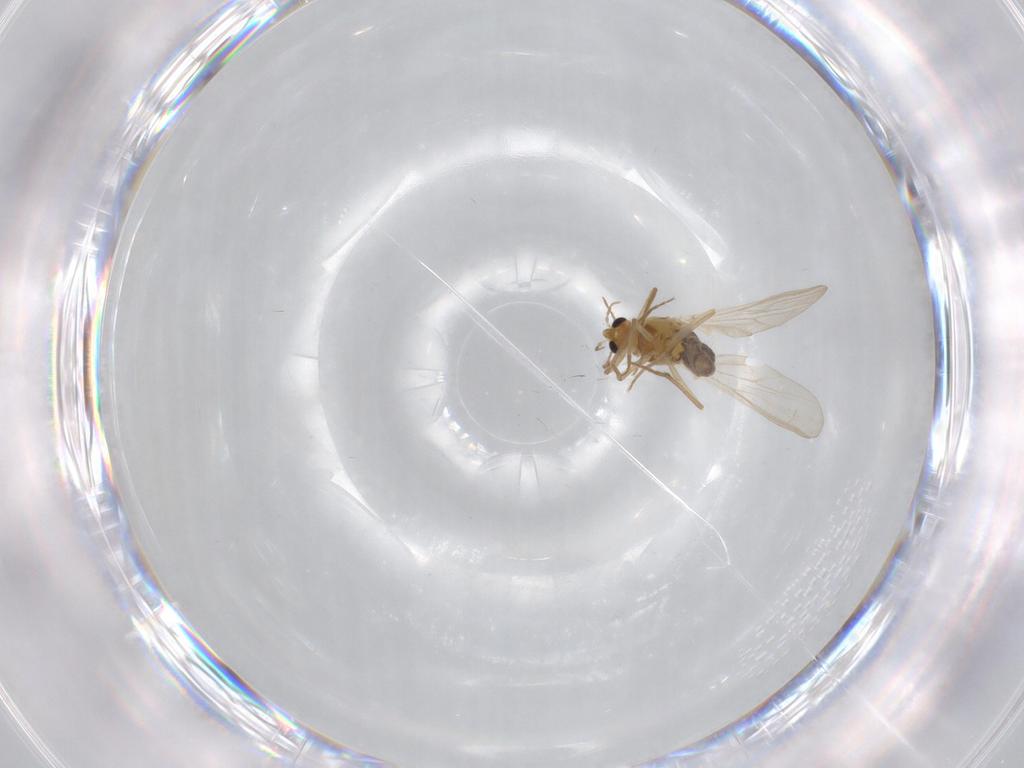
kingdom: Animalia
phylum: Arthropoda
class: Insecta
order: Diptera
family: Chironomidae
